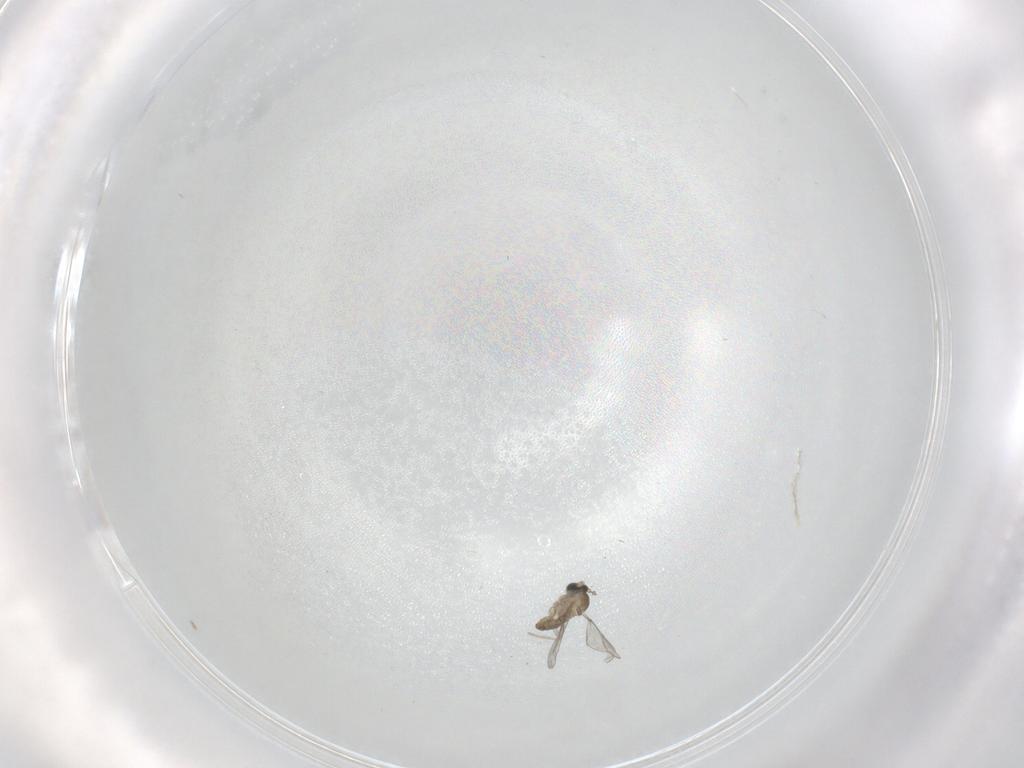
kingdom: Animalia
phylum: Arthropoda
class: Insecta
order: Diptera
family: Cecidomyiidae
